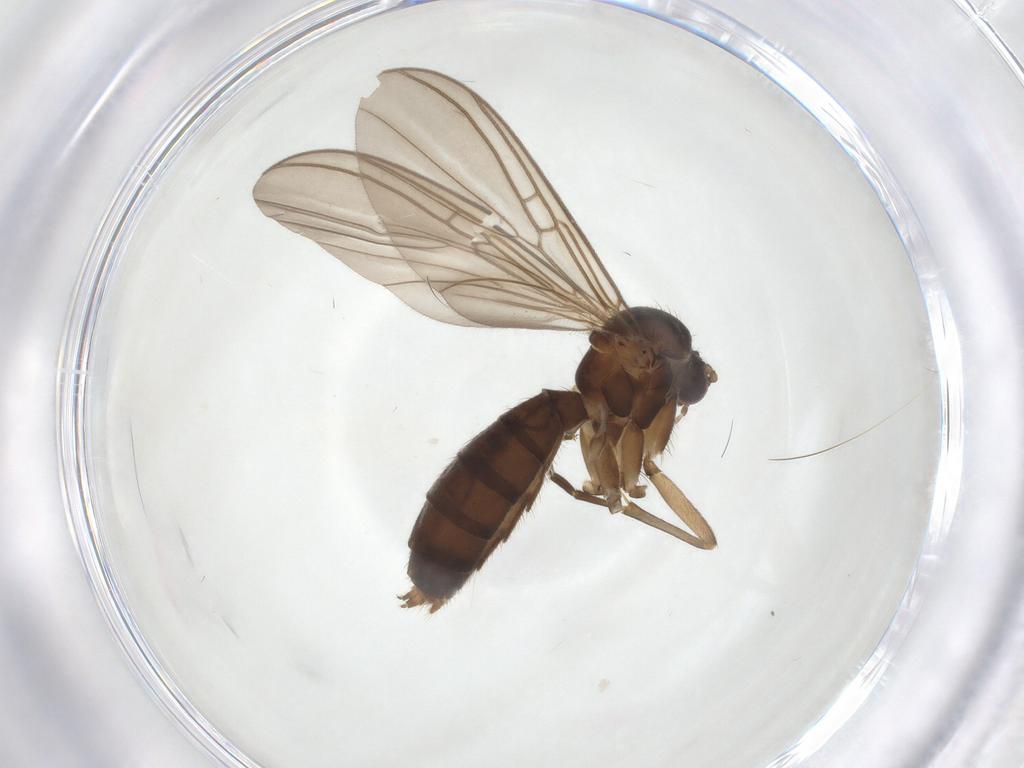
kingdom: Animalia
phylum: Arthropoda
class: Insecta
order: Diptera
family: Mycetophilidae
